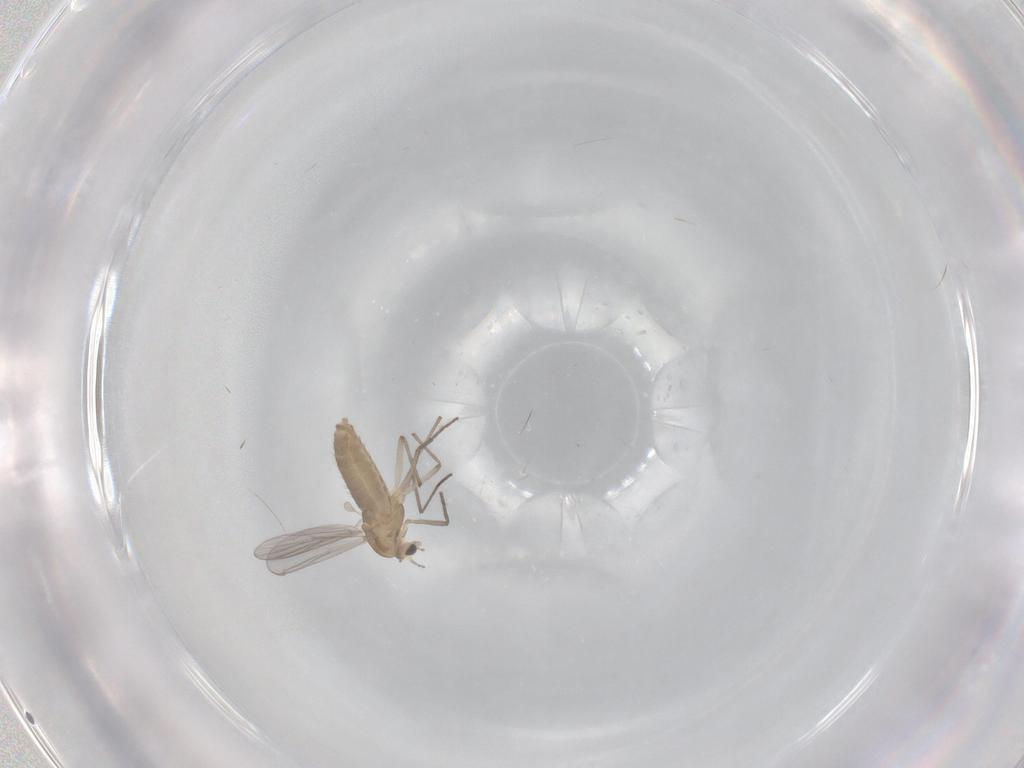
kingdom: Animalia
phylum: Arthropoda
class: Insecta
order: Diptera
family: Chironomidae
